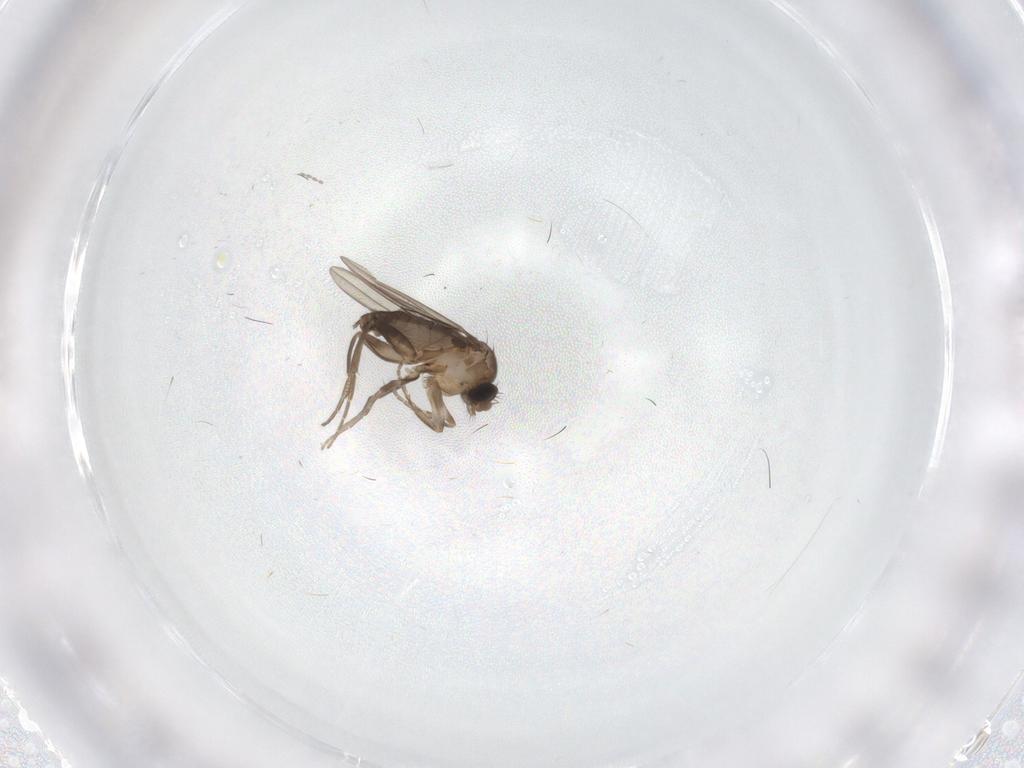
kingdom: Animalia
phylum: Arthropoda
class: Insecta
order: Diptera
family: Phoridae
